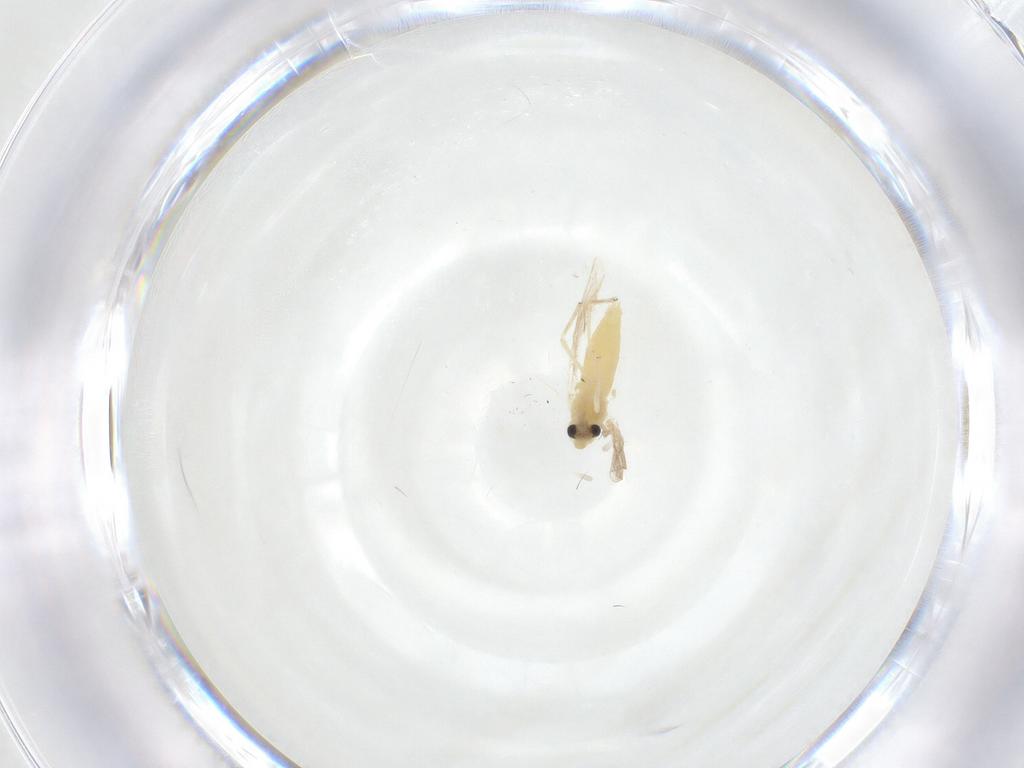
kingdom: Animalia
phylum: Arthropoda
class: Insecta
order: Diptera
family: Chironomidae
